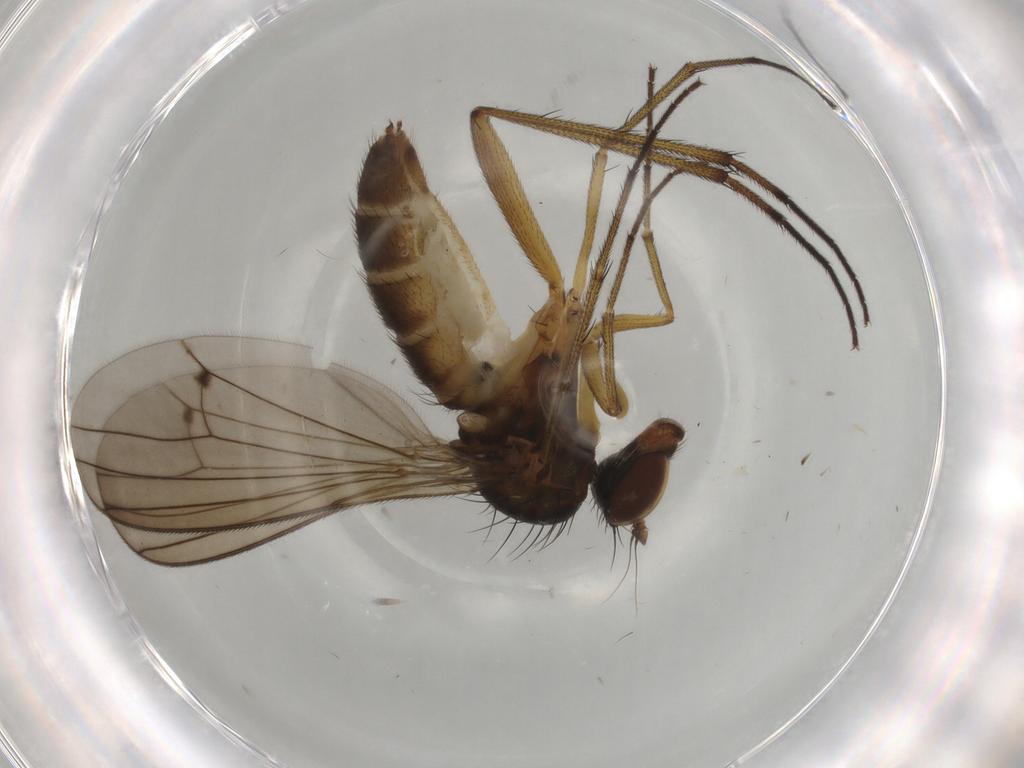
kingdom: Animalia
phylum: Arthropoda
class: Insecta
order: Diptera
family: Dolichopodidae
